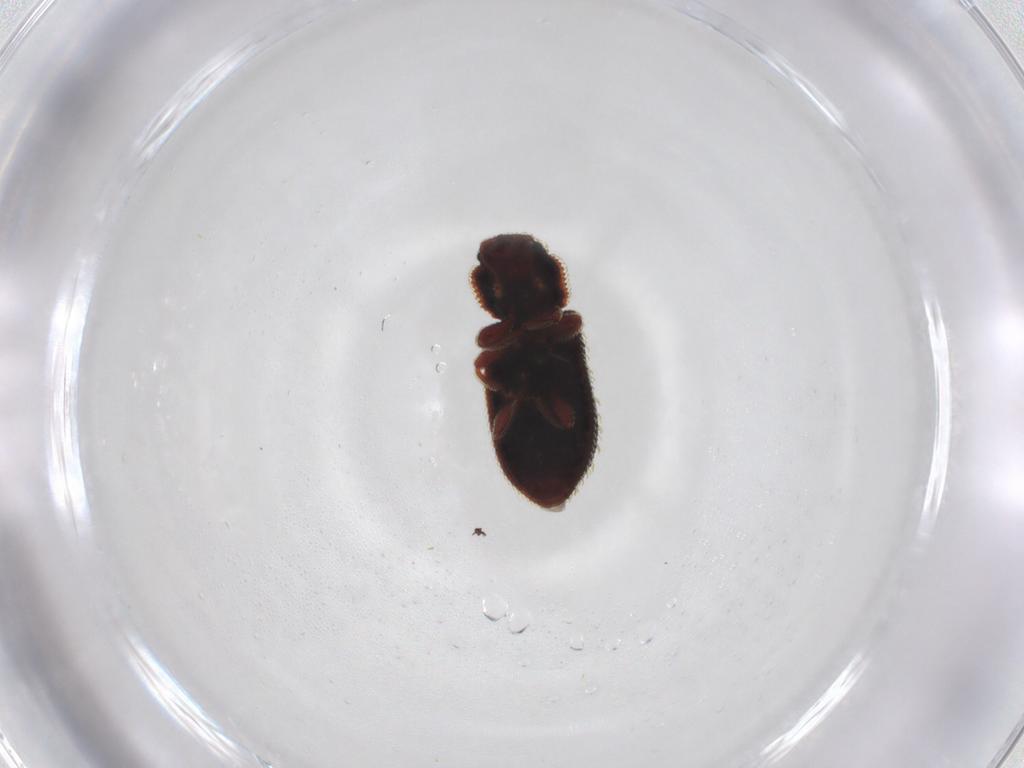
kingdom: Animalia
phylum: Arthropoda
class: Insecta
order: Coleoptera
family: Zopheridae
